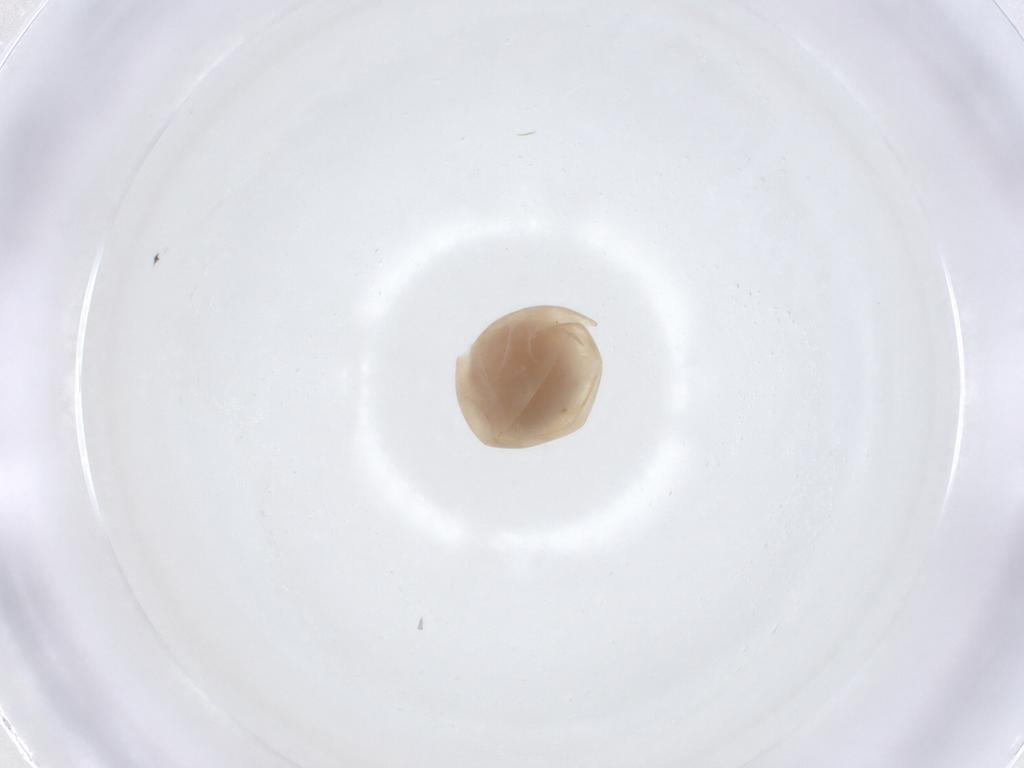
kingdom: Animalia
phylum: Arthropoda
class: Insecta
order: Hymenoptera
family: Scelionidae
